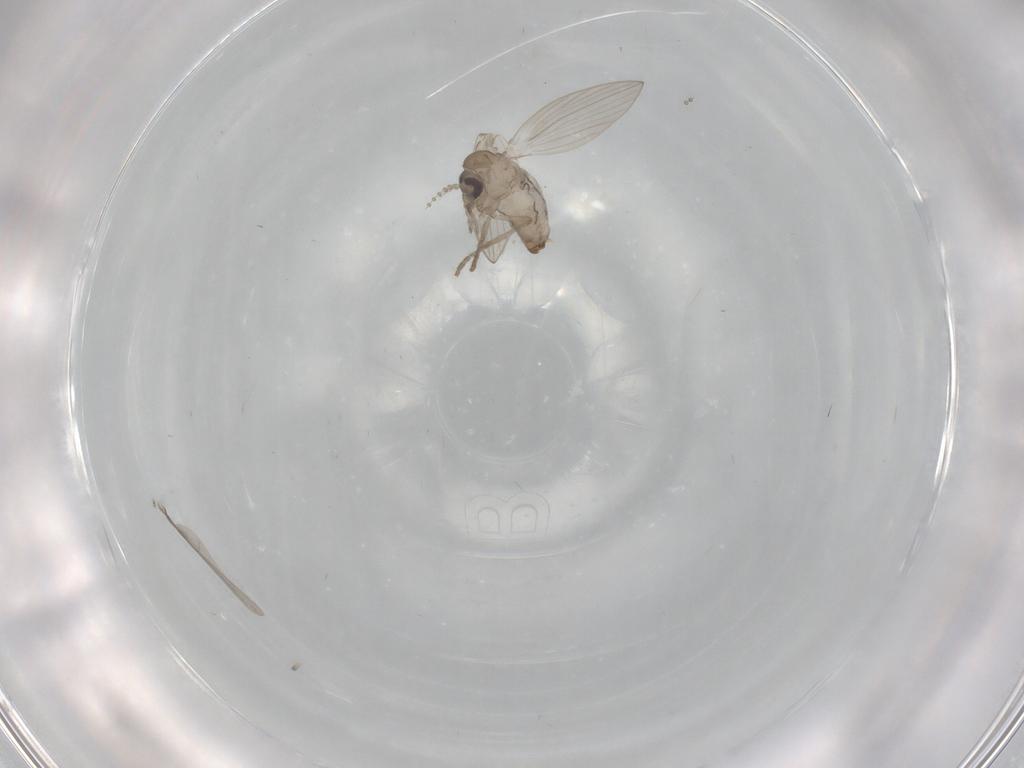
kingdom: Animalia
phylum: Arthropoda
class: Insecta
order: Diptera
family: Cecidomyiidae
